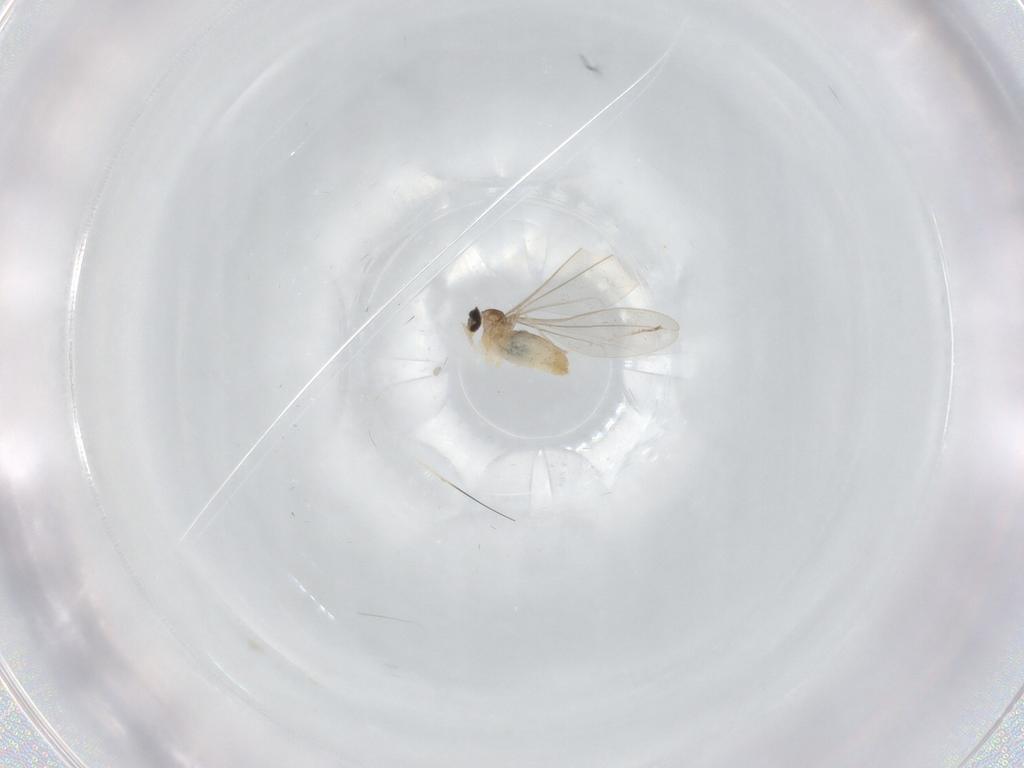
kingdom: Animalia
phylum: Arthropoda
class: Insecta
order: Diptera
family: Cecidomyiidae
